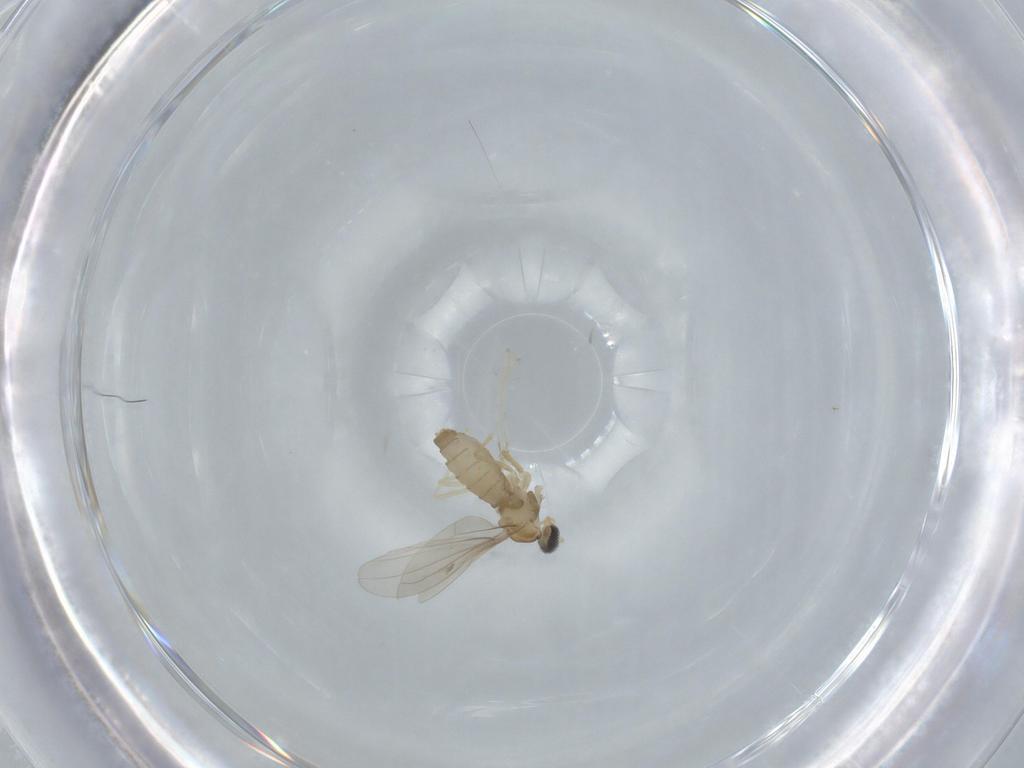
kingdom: Animalia
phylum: Arthropoda
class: Insecta
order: Diptera
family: Cecidomyiidae
